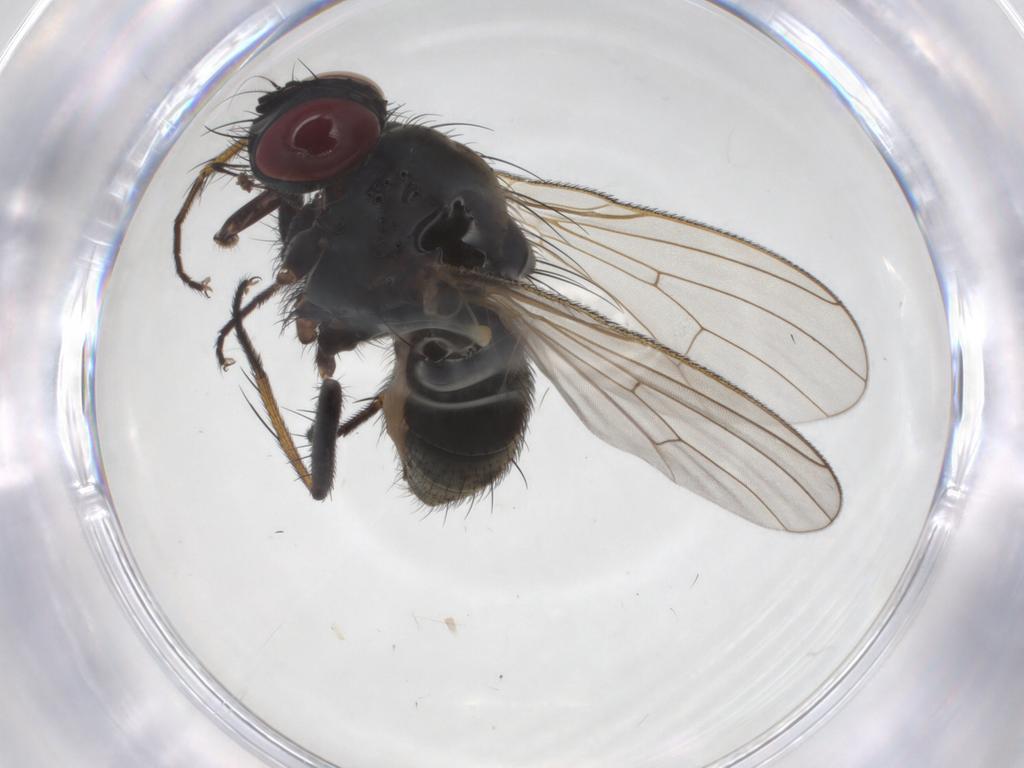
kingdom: Animalia
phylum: Arthropoda
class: Insecta
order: Diptera
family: Muscidae
